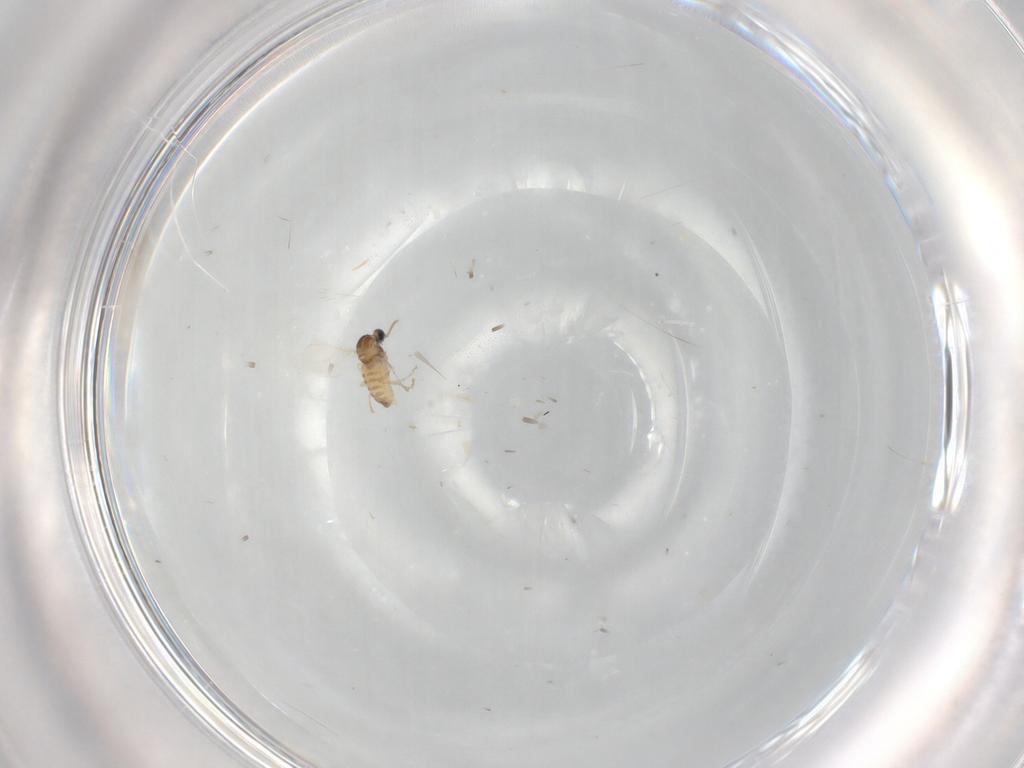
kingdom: Animalia
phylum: Arthropoda
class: Insecta
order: Diptera
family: Cecidomyiidae
